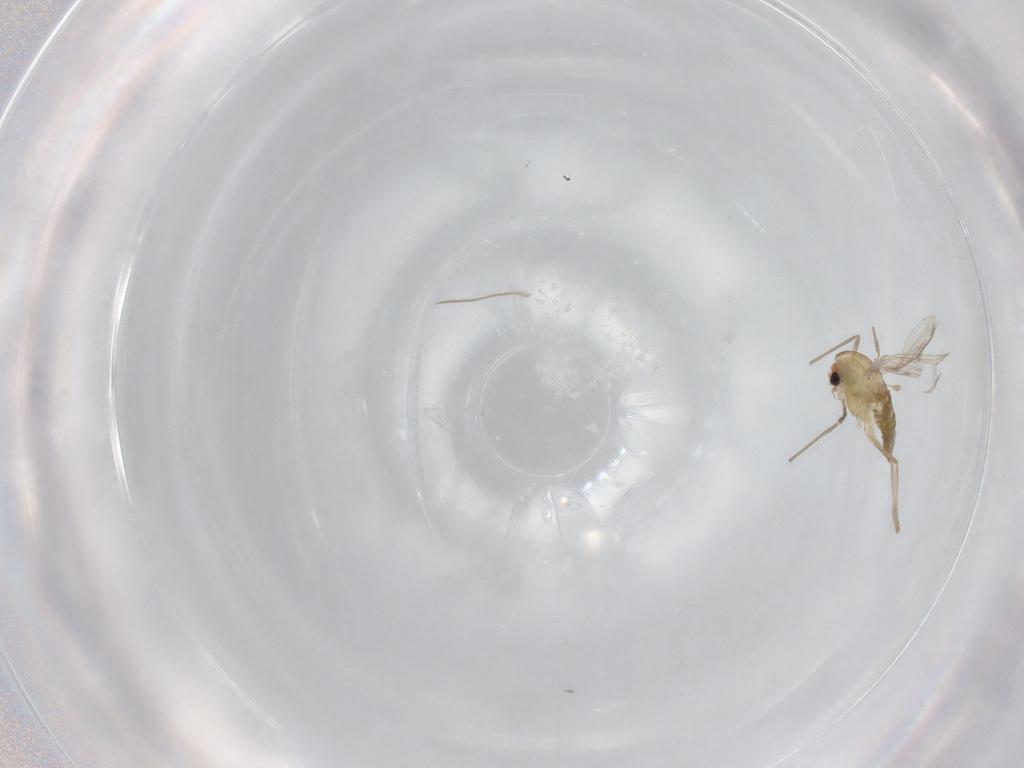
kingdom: Animalia
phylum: Arthropoda
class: Insecta
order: Diptera
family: Chironomidae
